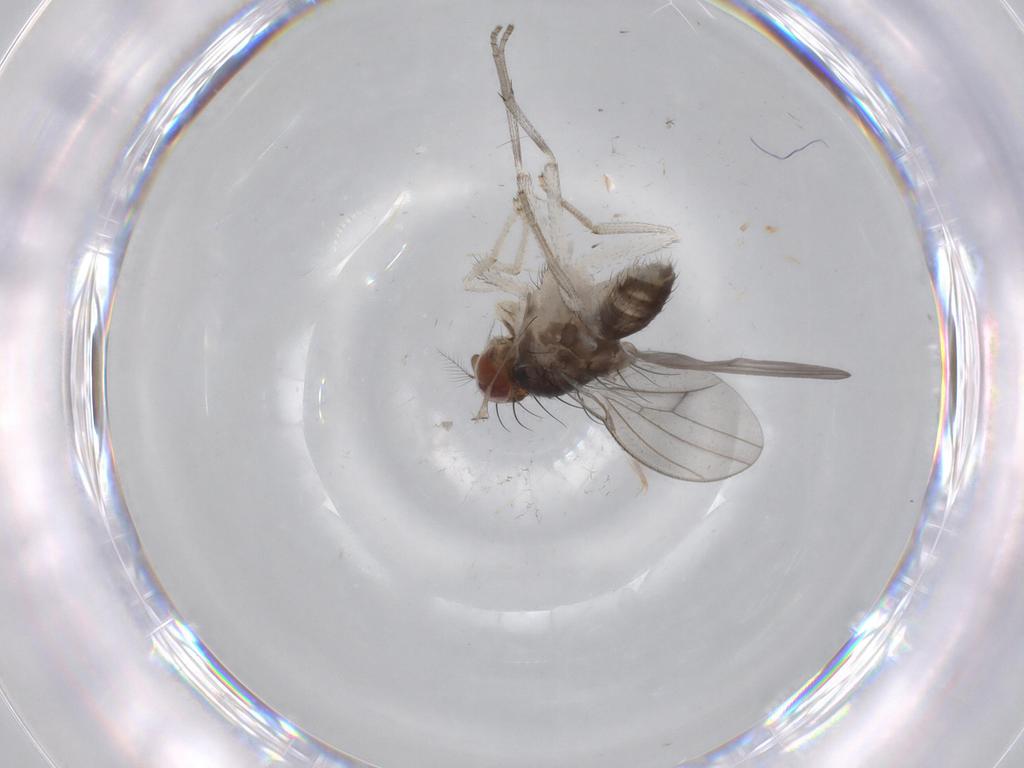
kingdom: Animalia
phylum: Arthropoda
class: Insecta
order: Diptera
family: Cecidomyiidae
